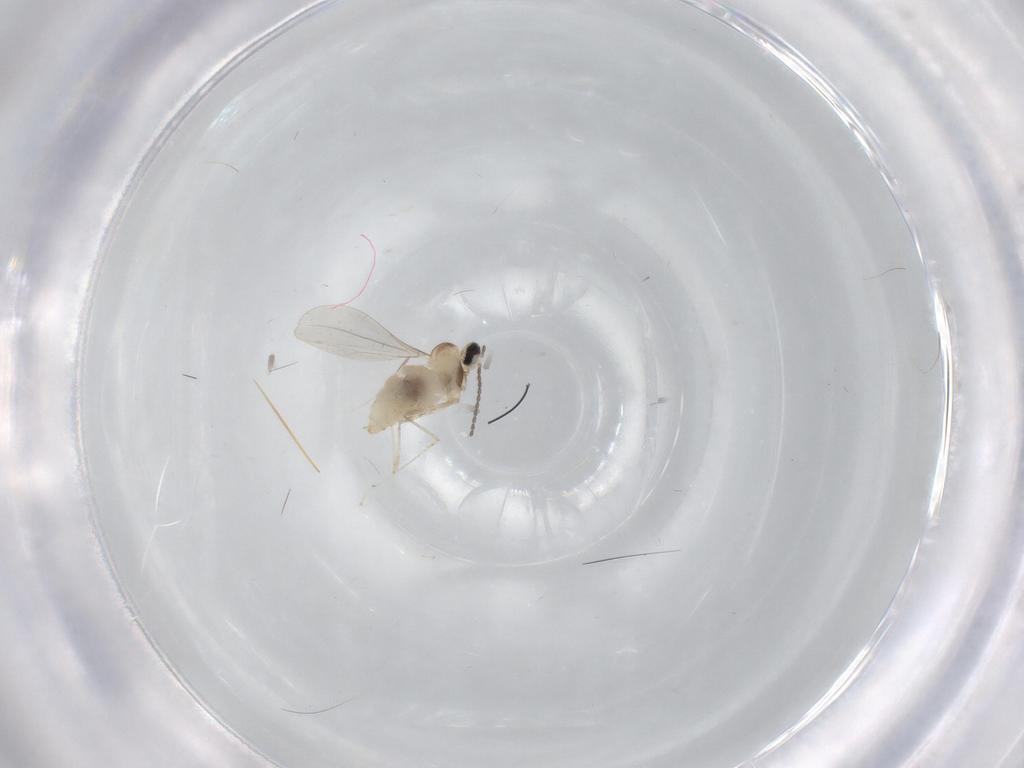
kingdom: Animalia
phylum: Arthropoda
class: Insecta
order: Diptera
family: Cecidomyiidae
